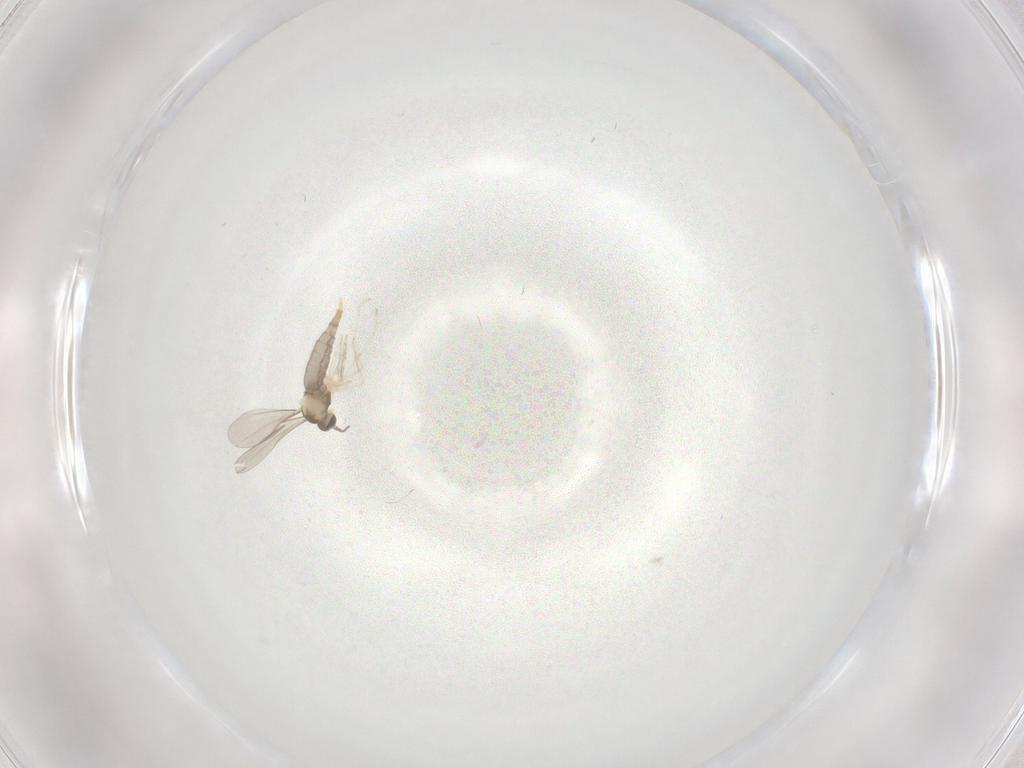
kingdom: Animalia
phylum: Arthropoda
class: Insecta
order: Diptera
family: Cecidomyiidae
